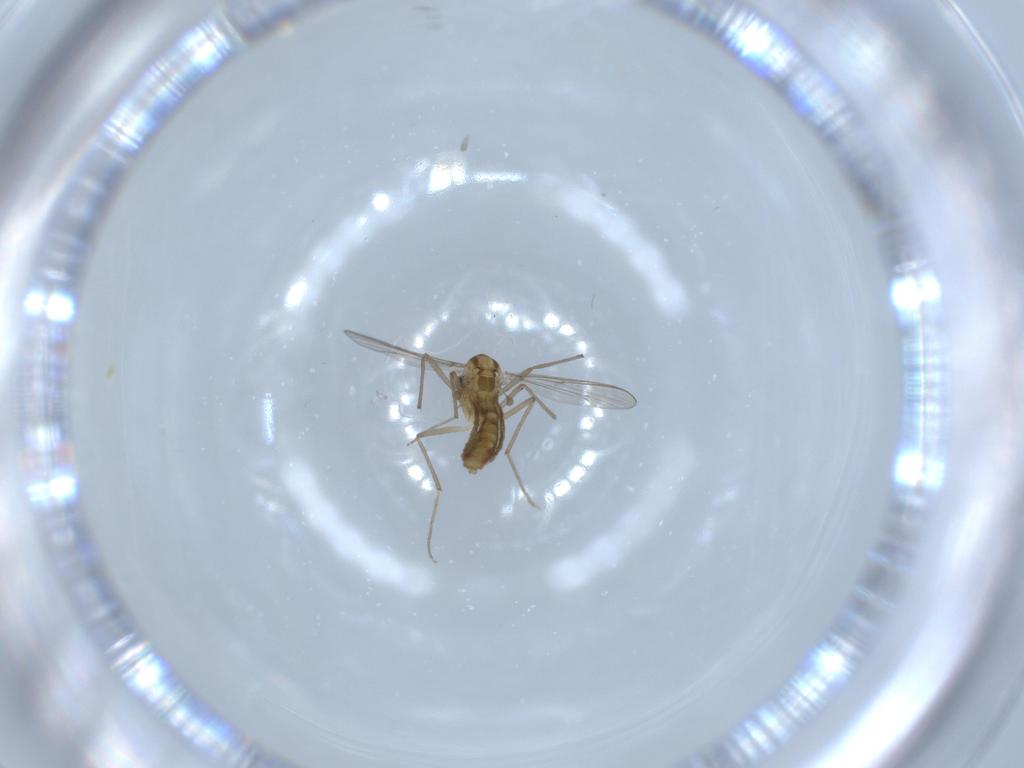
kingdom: Animalia
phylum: Arthropoda
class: Insecta
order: Diptera
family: Chironomidae
